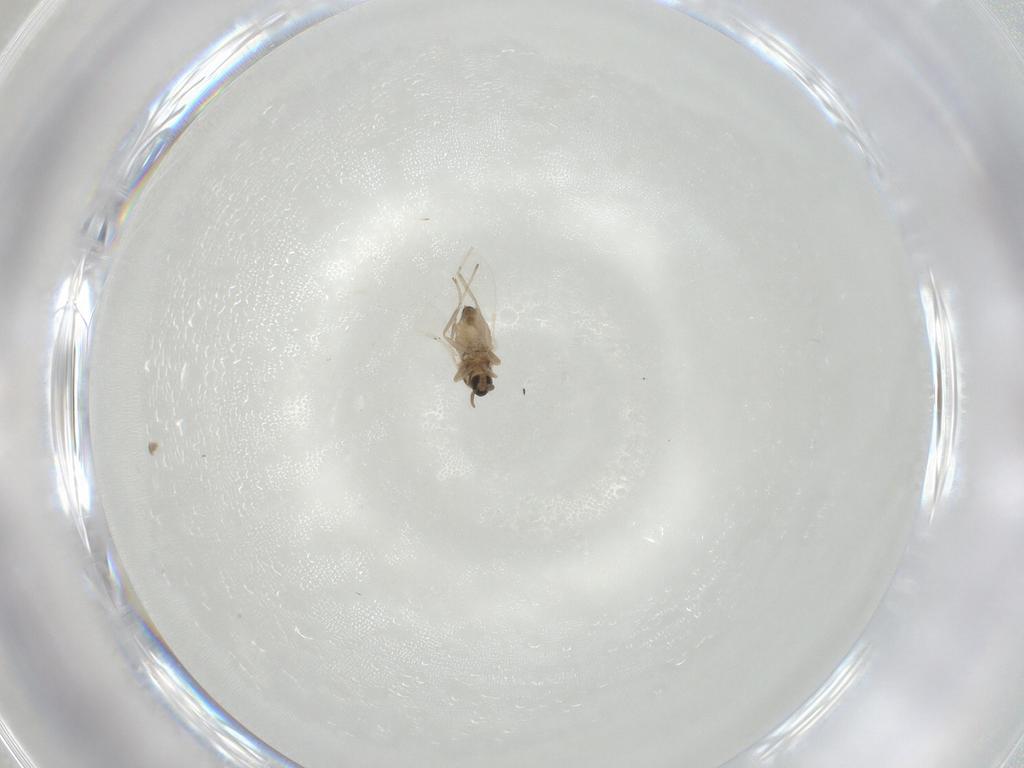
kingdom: Animalia
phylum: Arthropoda
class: Insecta
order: Diptera
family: Cecidomyiidae
